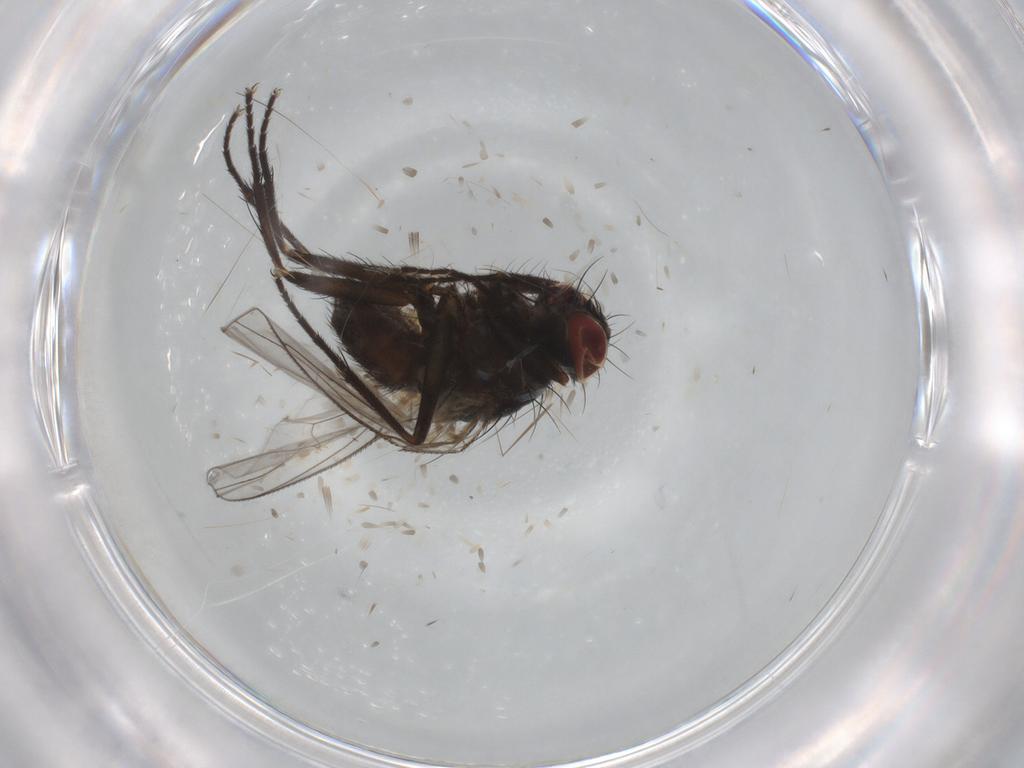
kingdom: Animalia
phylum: Arthropoda
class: Insecta
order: Diptera
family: Muscidae
